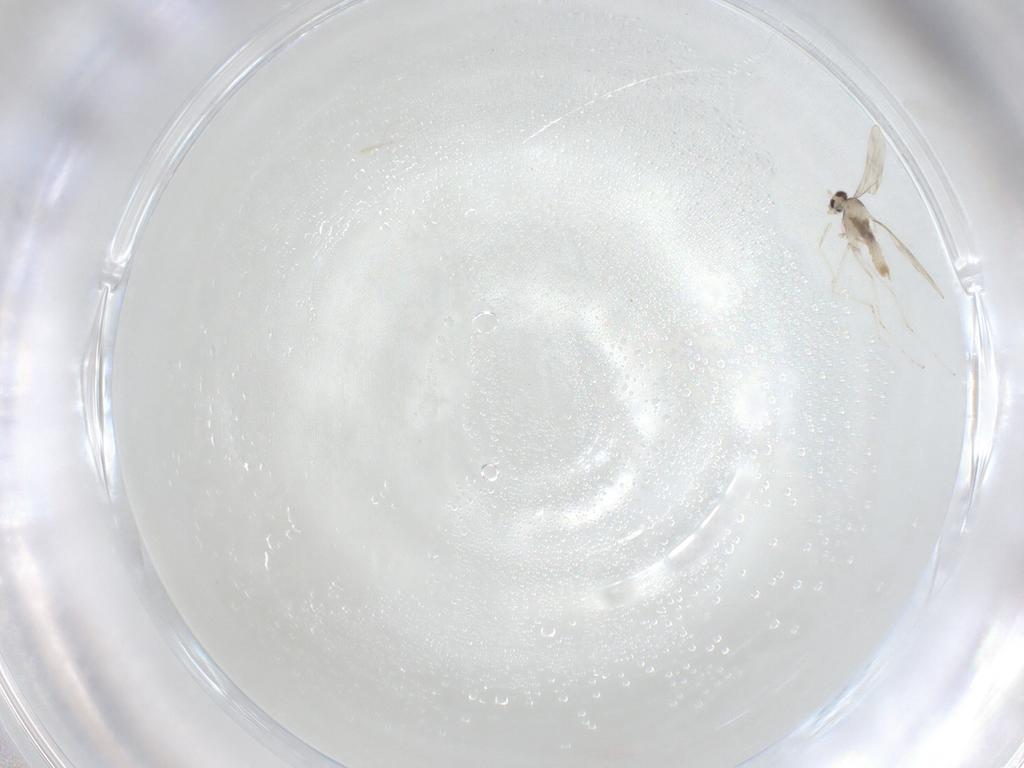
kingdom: Animalia
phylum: Arthropoda
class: Insecta
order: Diptera
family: Cecidomyiidae
